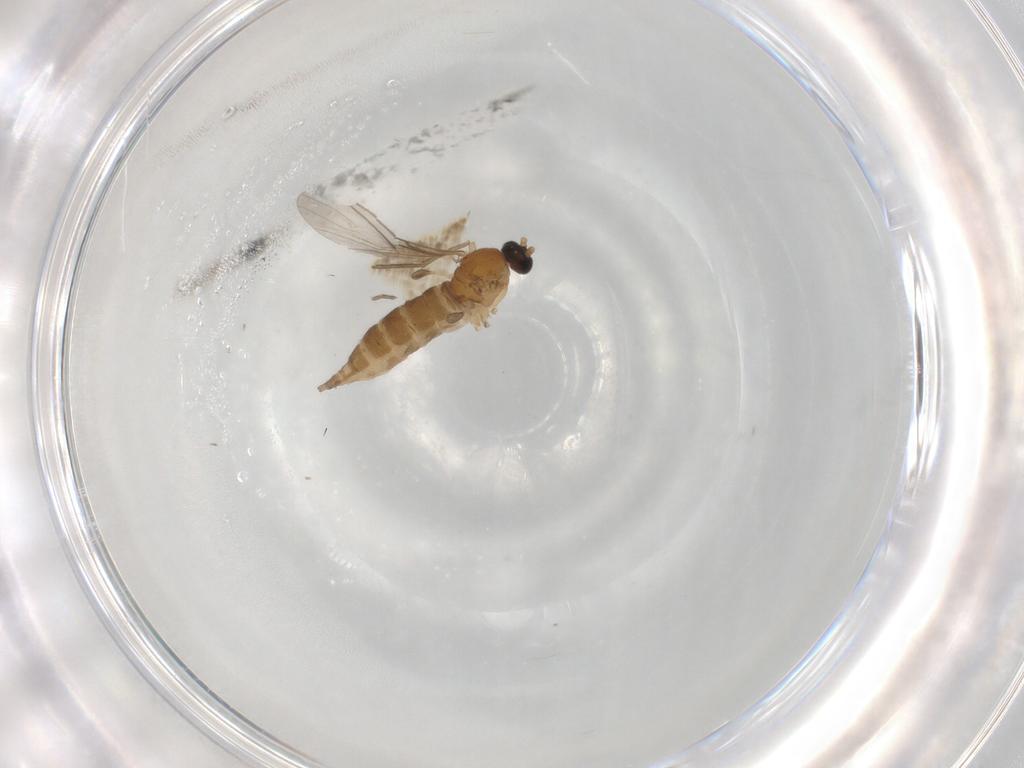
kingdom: Animalia
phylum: Arthropoda
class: Insecta
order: Diptera
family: Sciaridae
